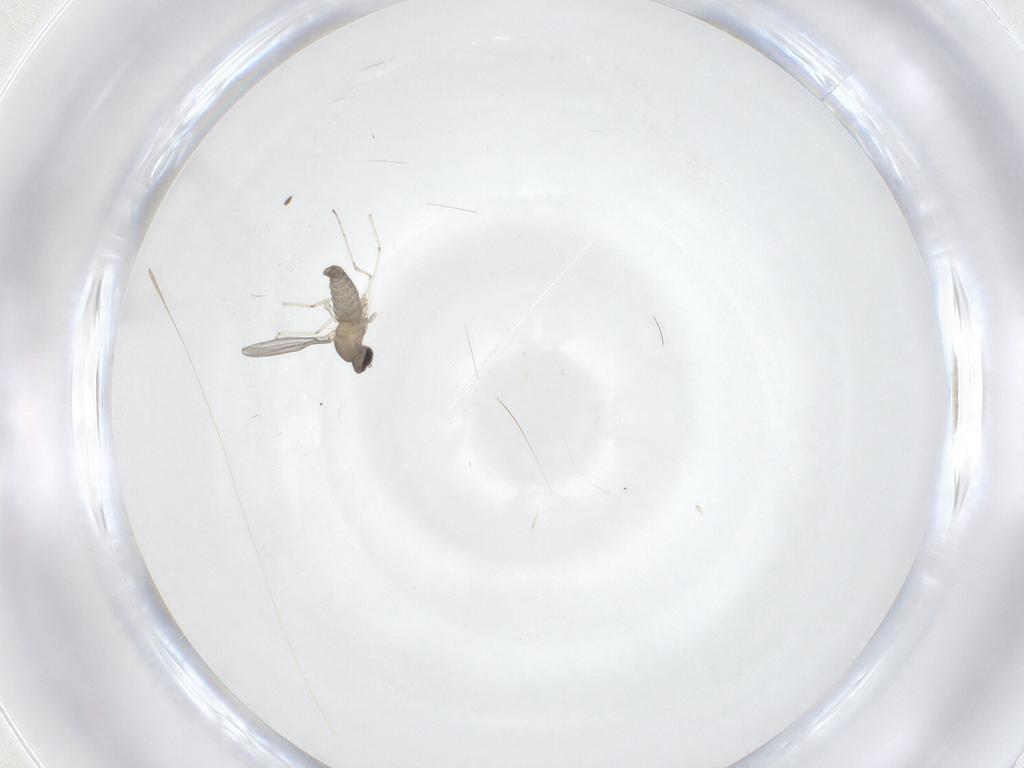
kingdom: Animalia
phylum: Arthropoda
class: Insecta
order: Diptera
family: Cecidomyiidae
